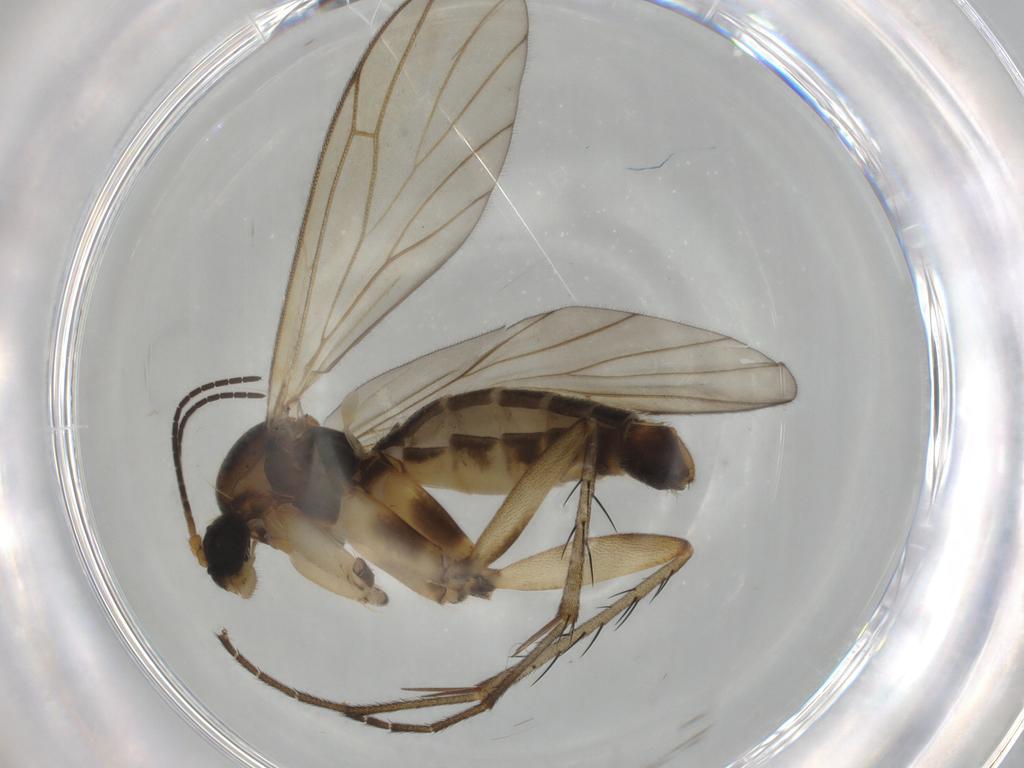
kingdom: Animalia
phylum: Arthropoda
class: Insecta
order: Diptera
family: Mycetophilidae
